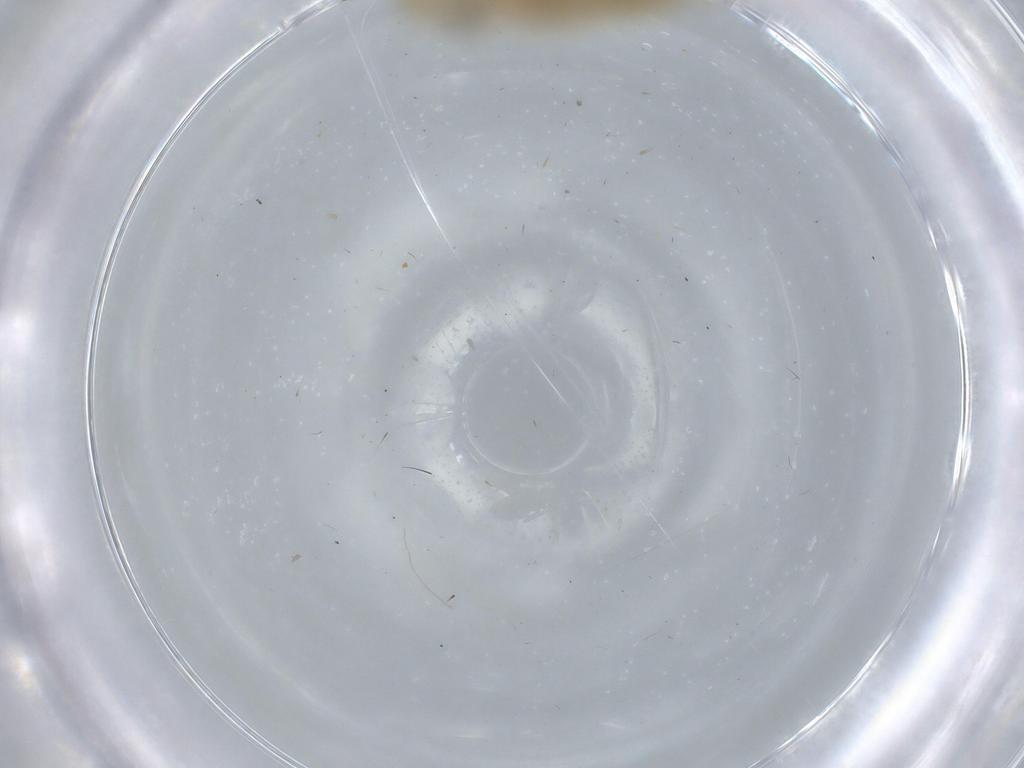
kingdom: Animalia
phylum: Arthropoda
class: Insecta
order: Psocodea
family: Caeciliusidae
